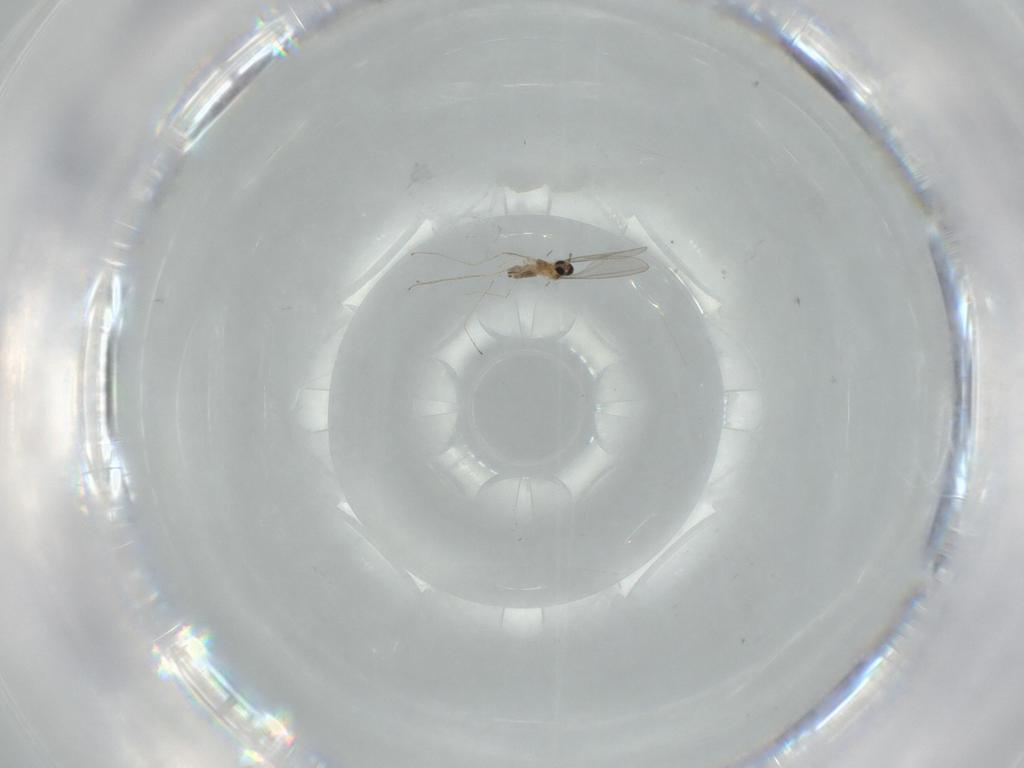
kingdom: Animalia
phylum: Arthropoda
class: Insecta
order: Diptera
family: Cecidomyiidae
